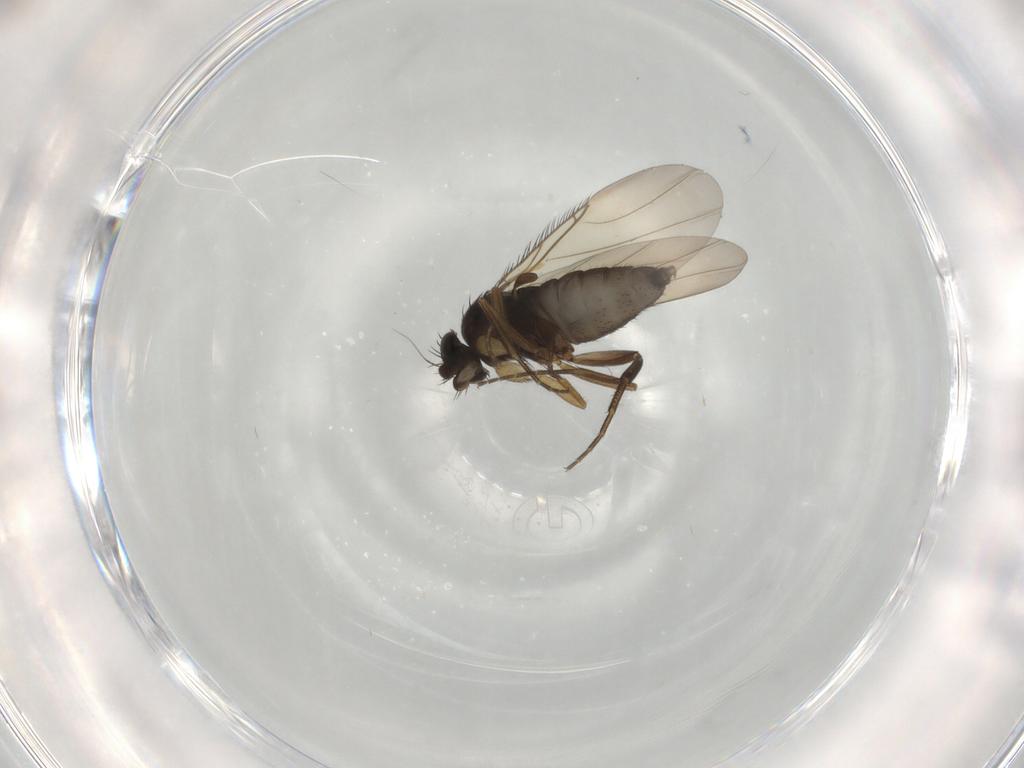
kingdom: Animalia
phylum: Arthropoda
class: Insecta
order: Diptera
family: Phoridae
